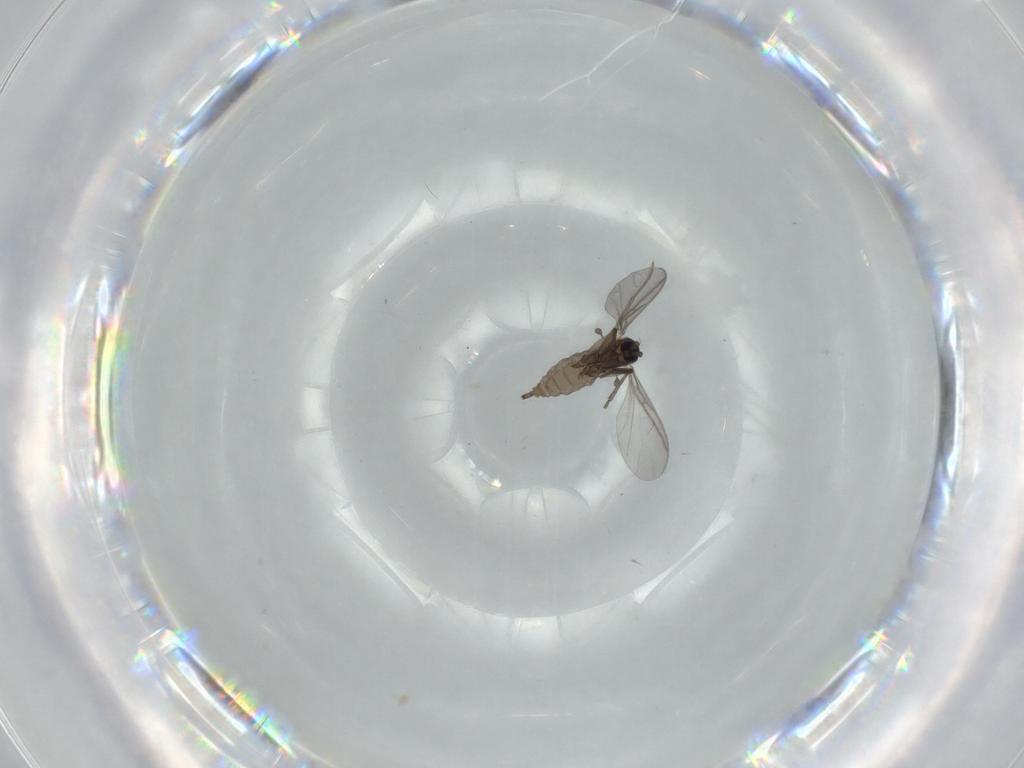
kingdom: Animalia
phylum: Arthropoda
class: Insecta
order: Diptera
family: Sciaridae
